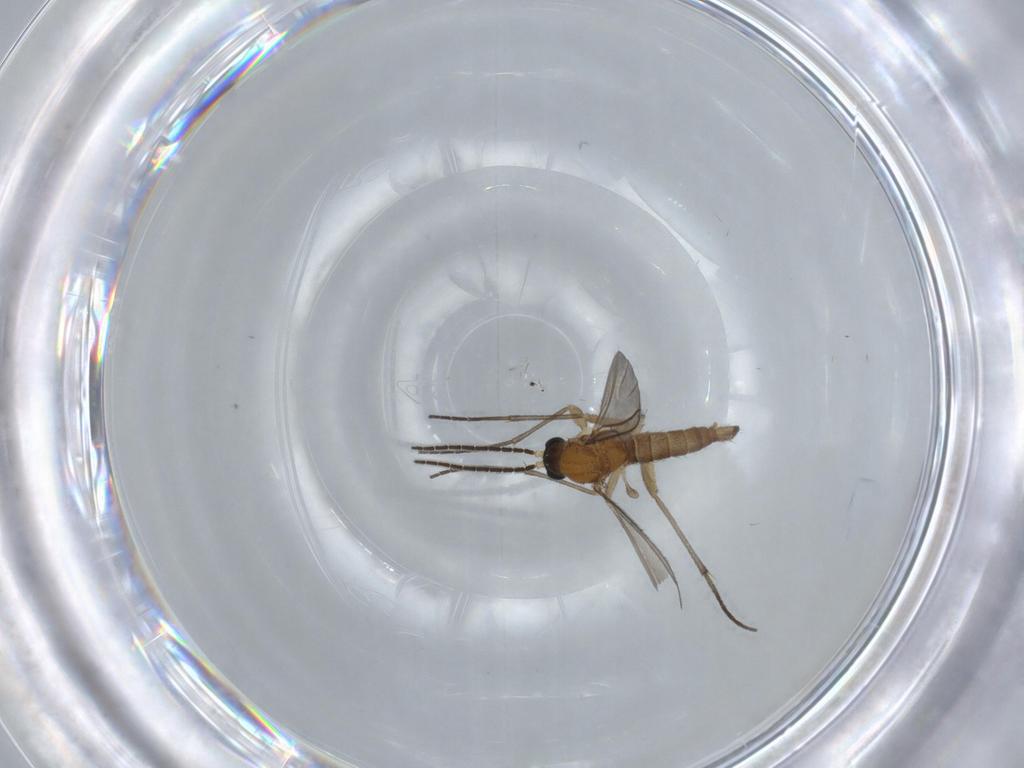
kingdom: Animalia
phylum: Arthropoda
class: Insecta
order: Diptera
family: Sciaridae
